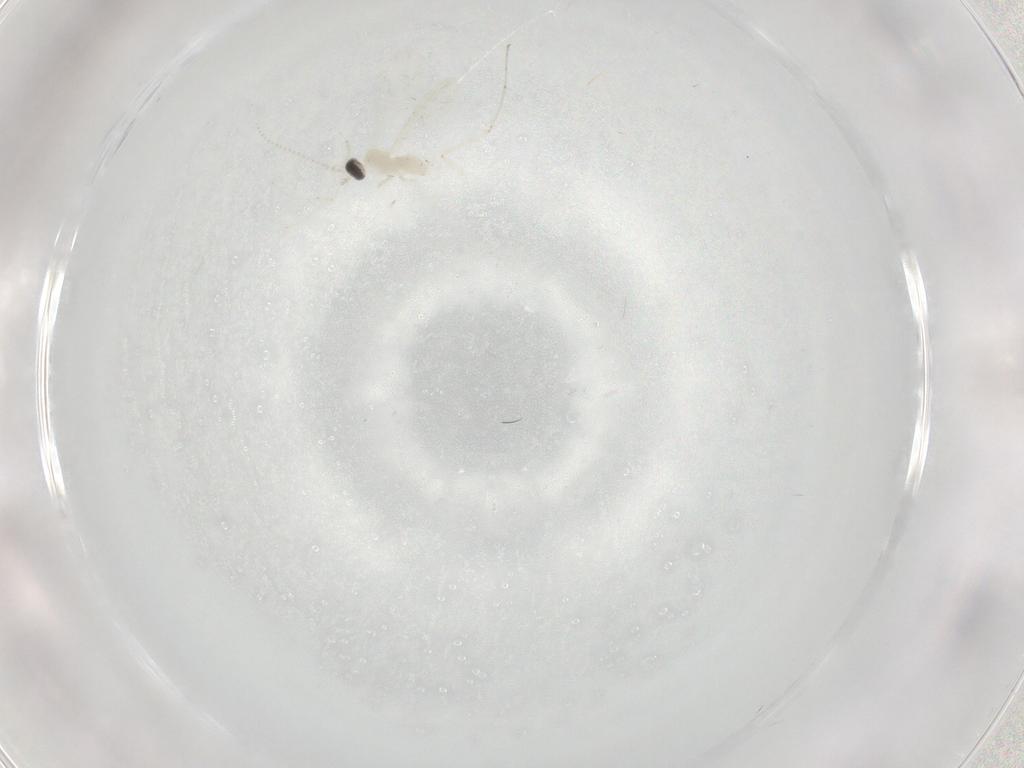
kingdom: Animalia
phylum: Arthropoda
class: Insecta
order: Diptera
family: Cecidomyiidae
